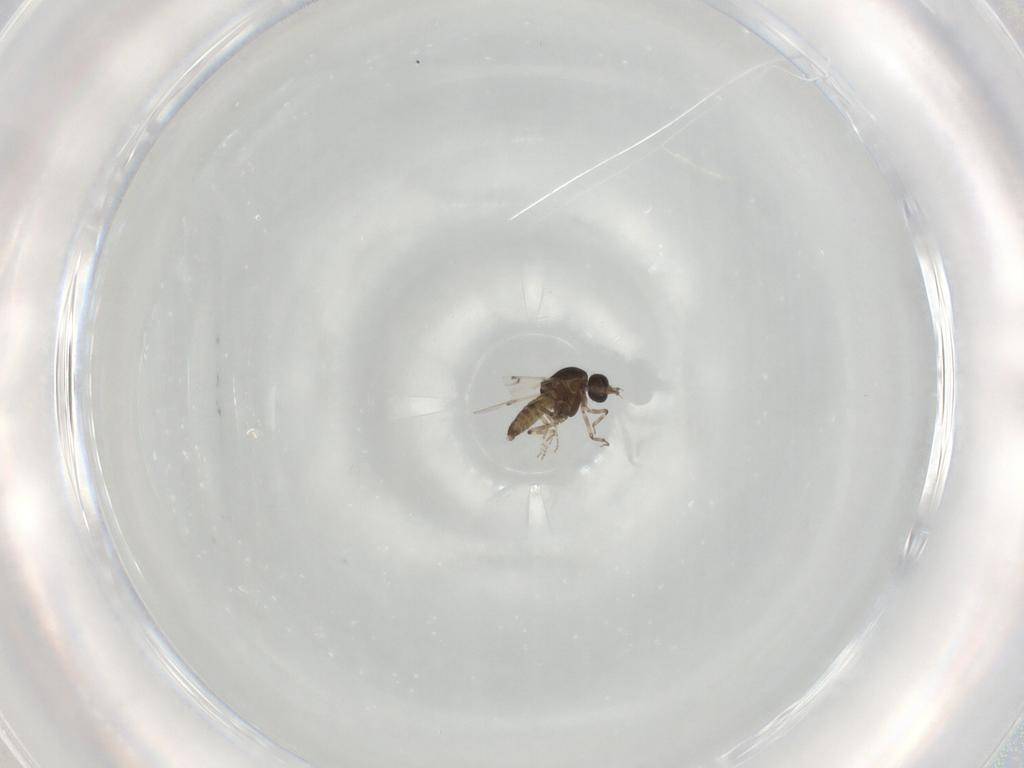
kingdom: Animalia
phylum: Arthropoda
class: Insecta
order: Diptera
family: Ceratopogonidae
